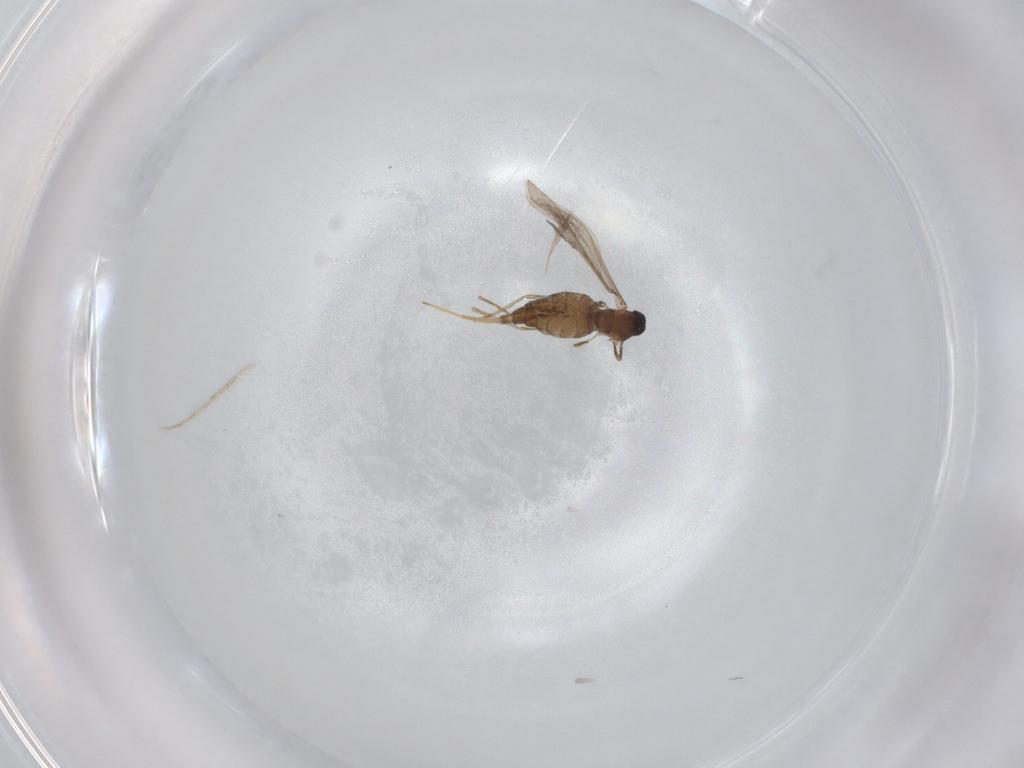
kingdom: Animalia
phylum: Arthropoda
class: Insecta
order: Diptera
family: Cecidomyiidae
